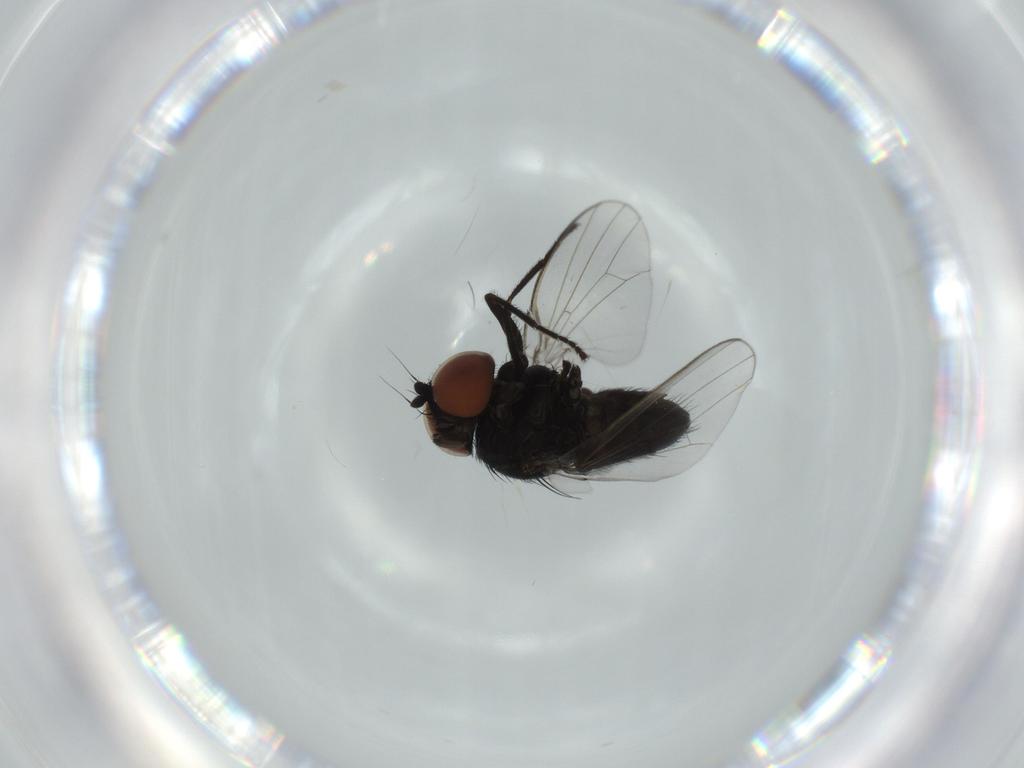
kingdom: Animalia
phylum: Arthropoda
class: Insecta
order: Diptera
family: Milichiidae
